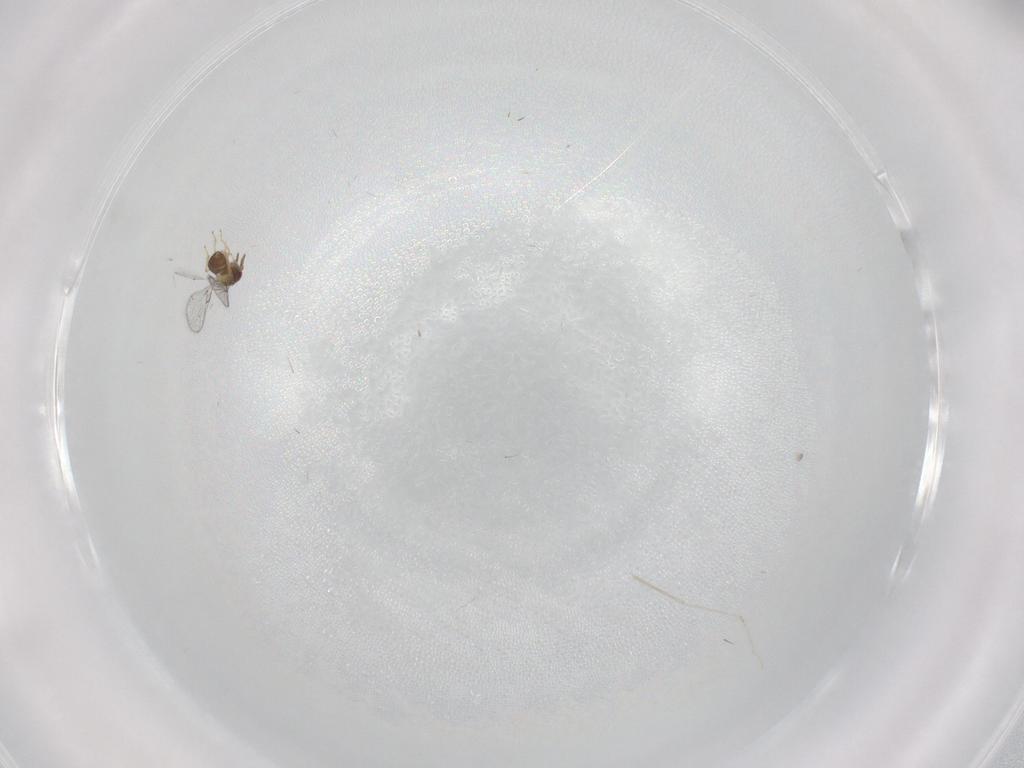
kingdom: Animalia
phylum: Arthropoda
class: Insecta
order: Diptera
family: Cecidomyiidae
